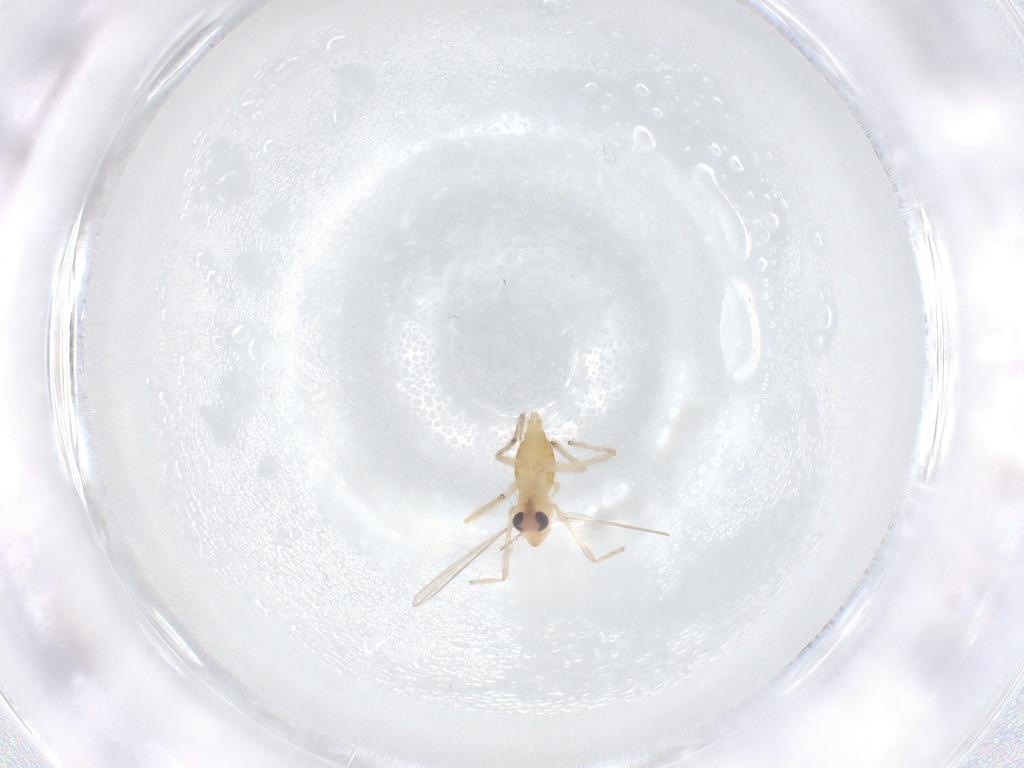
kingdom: Animalia
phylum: Arthropoda
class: Insecta
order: Diptera
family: Chironomidae
